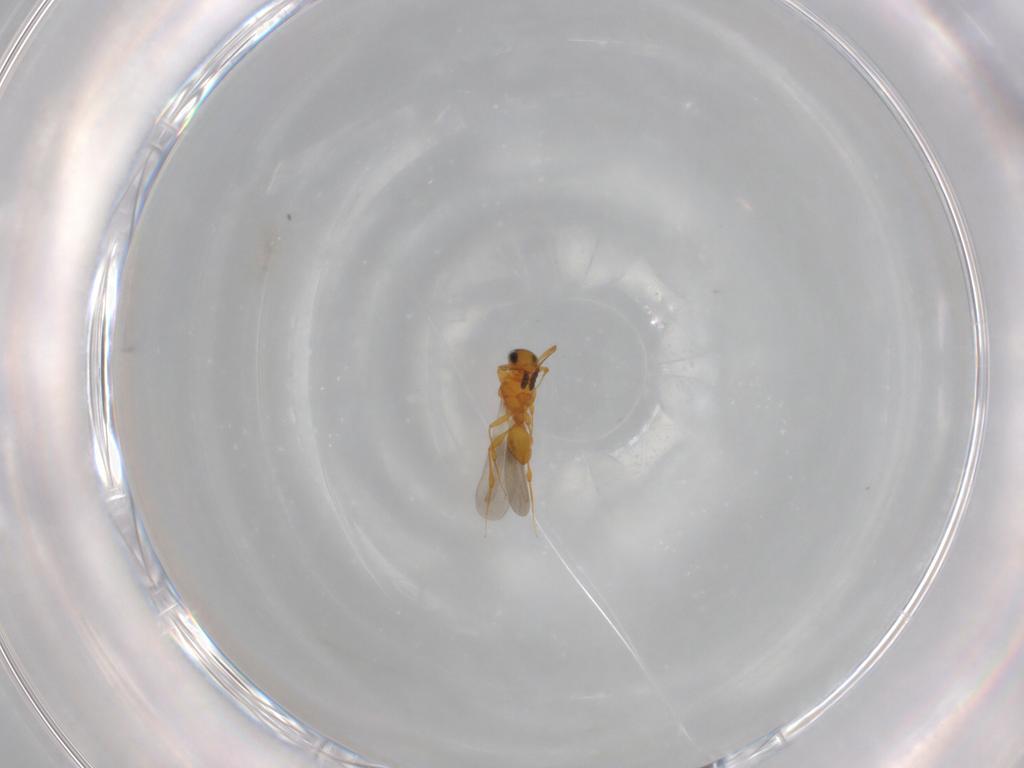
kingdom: Animalia
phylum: Arthropoda
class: Insecta
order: Hymenoptera
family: Platygastridae
